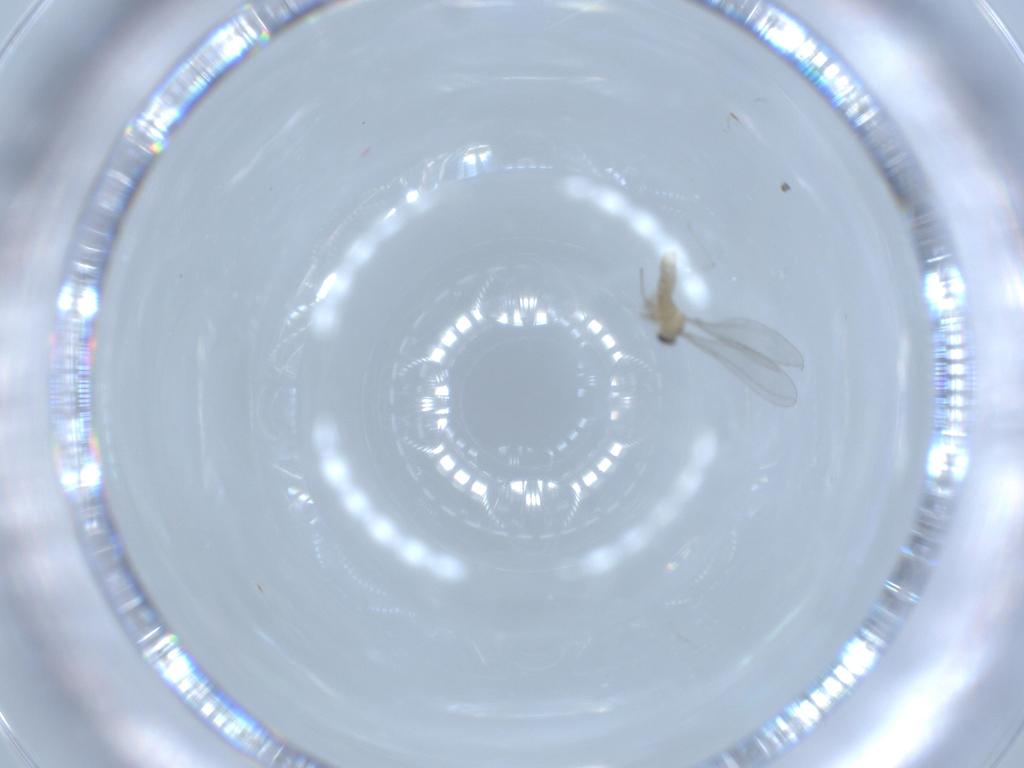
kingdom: Animalia
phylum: Arthropoda
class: Insecta
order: Diptera
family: Cecidomyiidae
